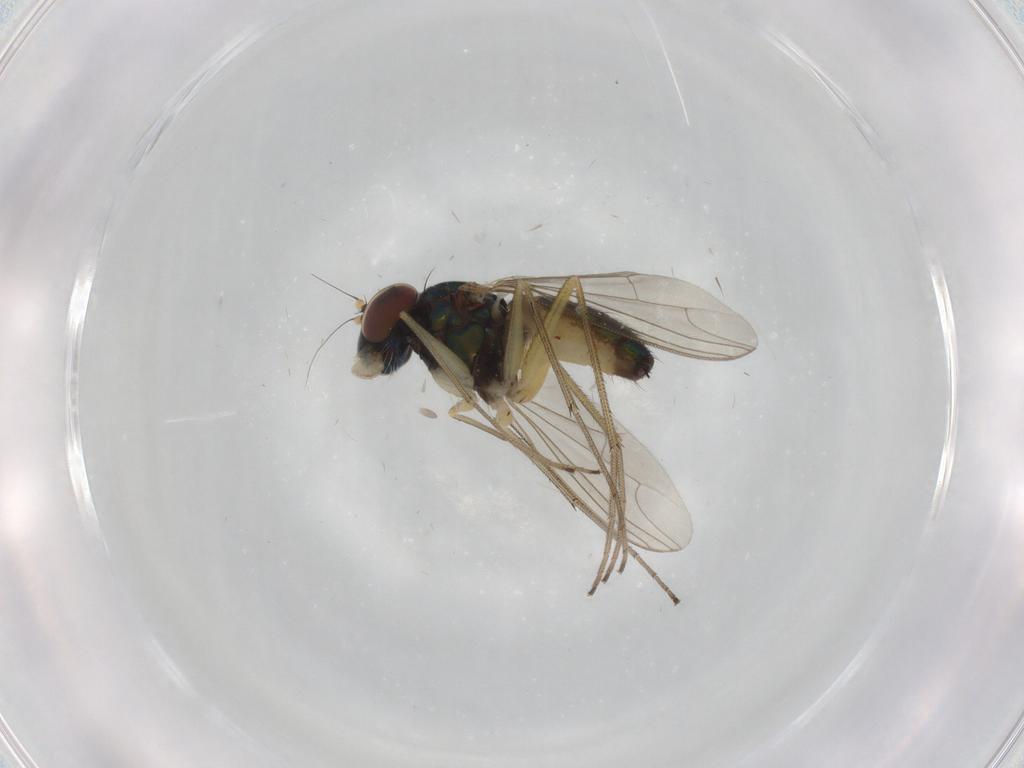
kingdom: Animalia
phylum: Arthropoda
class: Insecta
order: Diptera
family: Dolichopodidae
